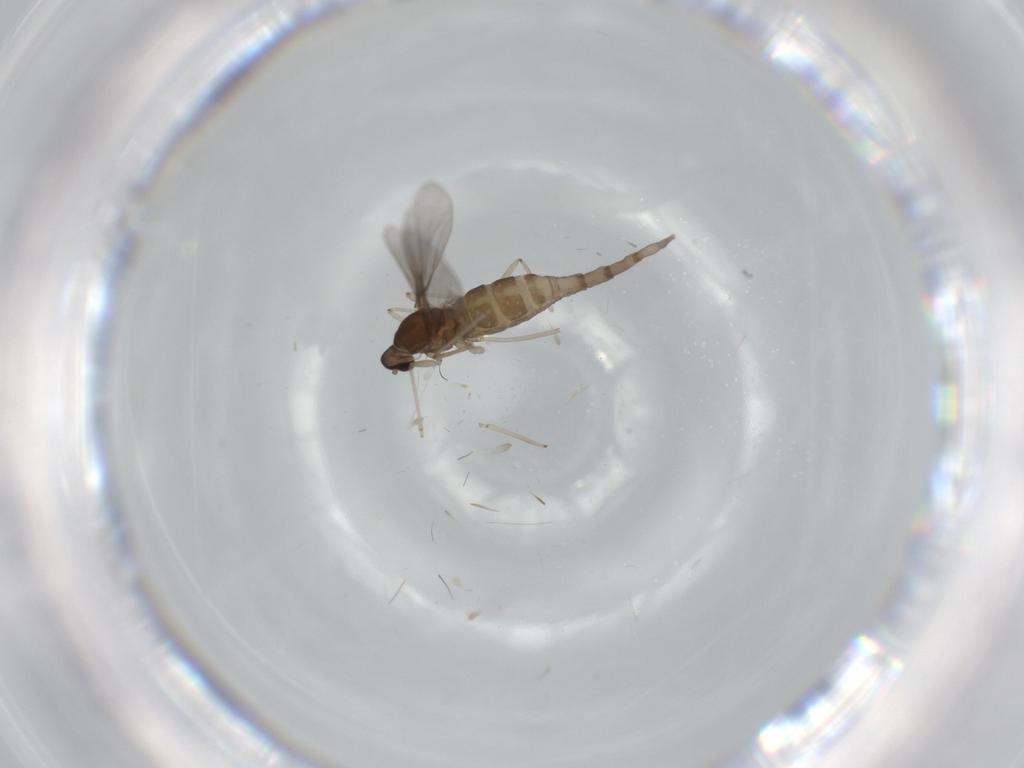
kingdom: Animalia
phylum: Arthropoda
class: Insecta
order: Diptera
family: Cecidomyiidae
